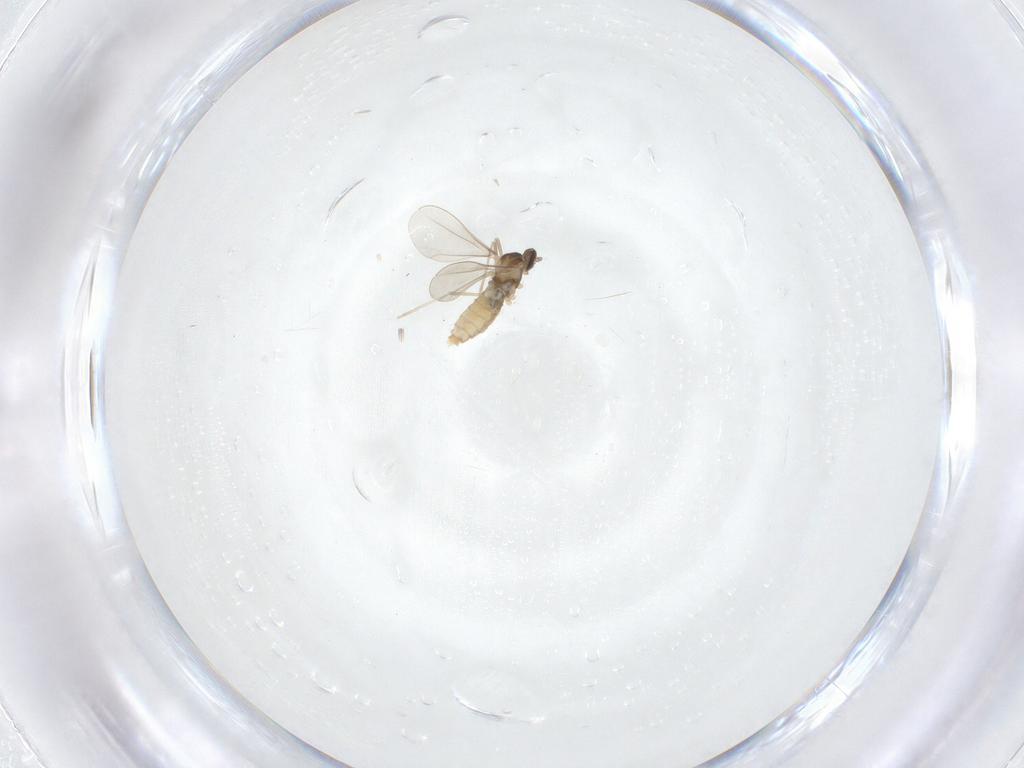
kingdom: Animalia
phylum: Arthropoda
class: Insecta
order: Diptera
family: Cecidomyiidae
